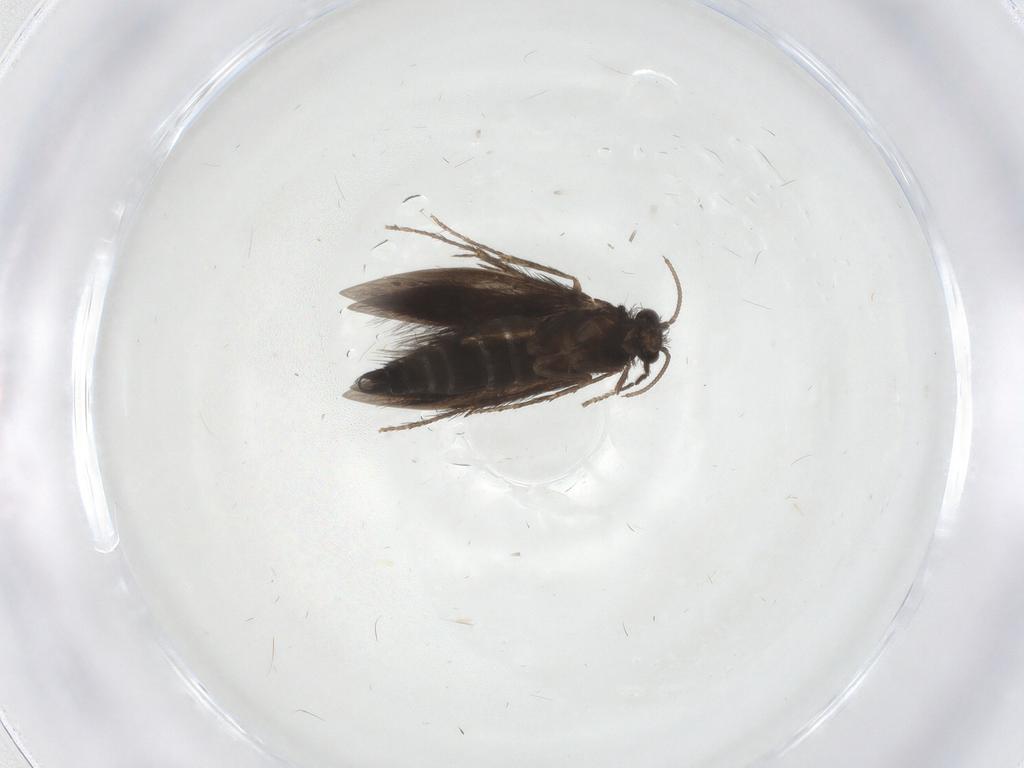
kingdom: Animalia
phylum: Arthropoda
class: Insecta
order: Trichoptera
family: Hydroptilidae
